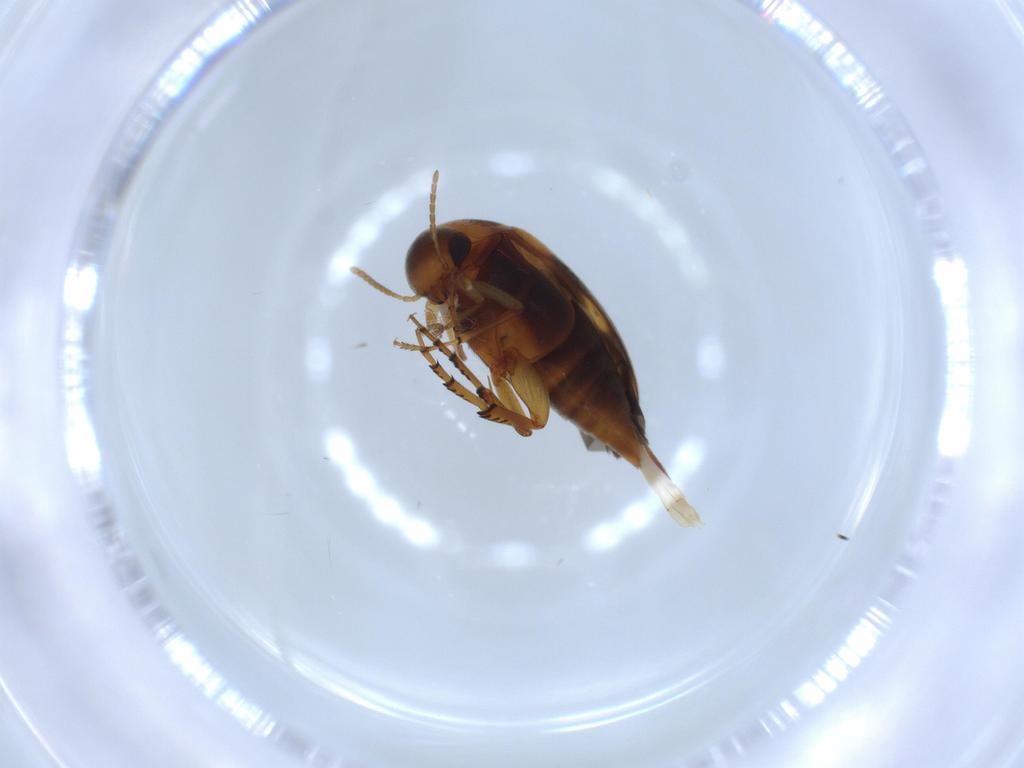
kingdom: Animalia
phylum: Arthropoda
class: Insecta
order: Coleoptera
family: Mordellidae
